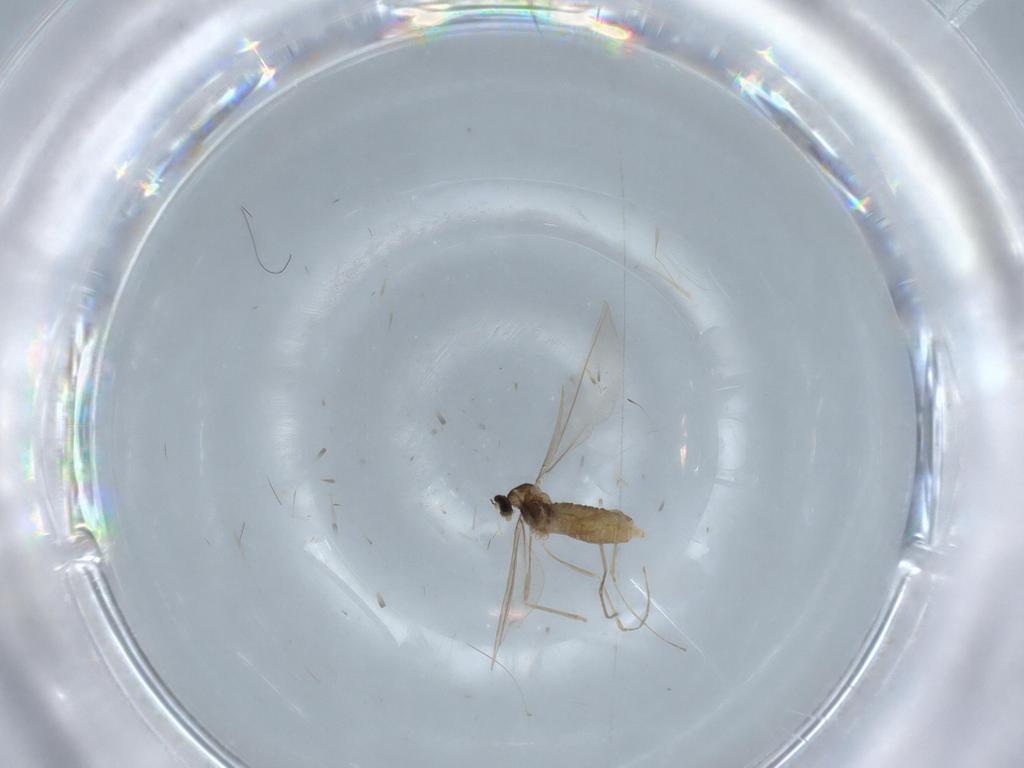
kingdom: Animalia
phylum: Arthropoda
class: Insecta
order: Diptera
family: Cecidomyiidae
